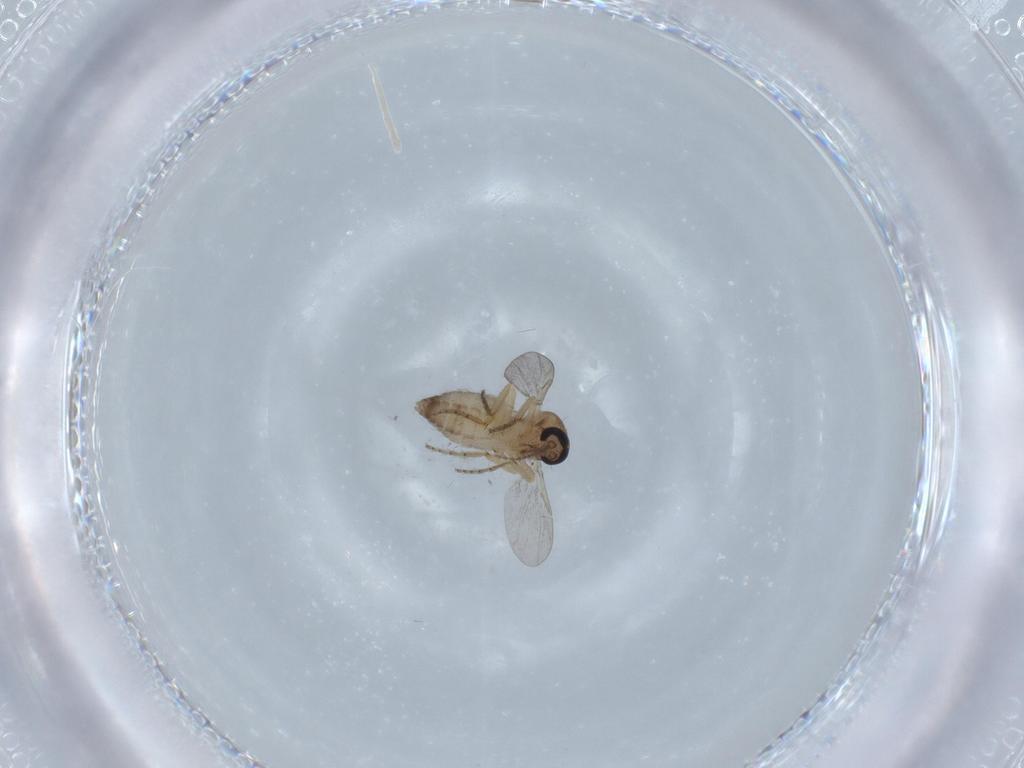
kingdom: Animalia
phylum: Arthropoda
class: Insecta
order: Diptera
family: Ceratopogonidae
